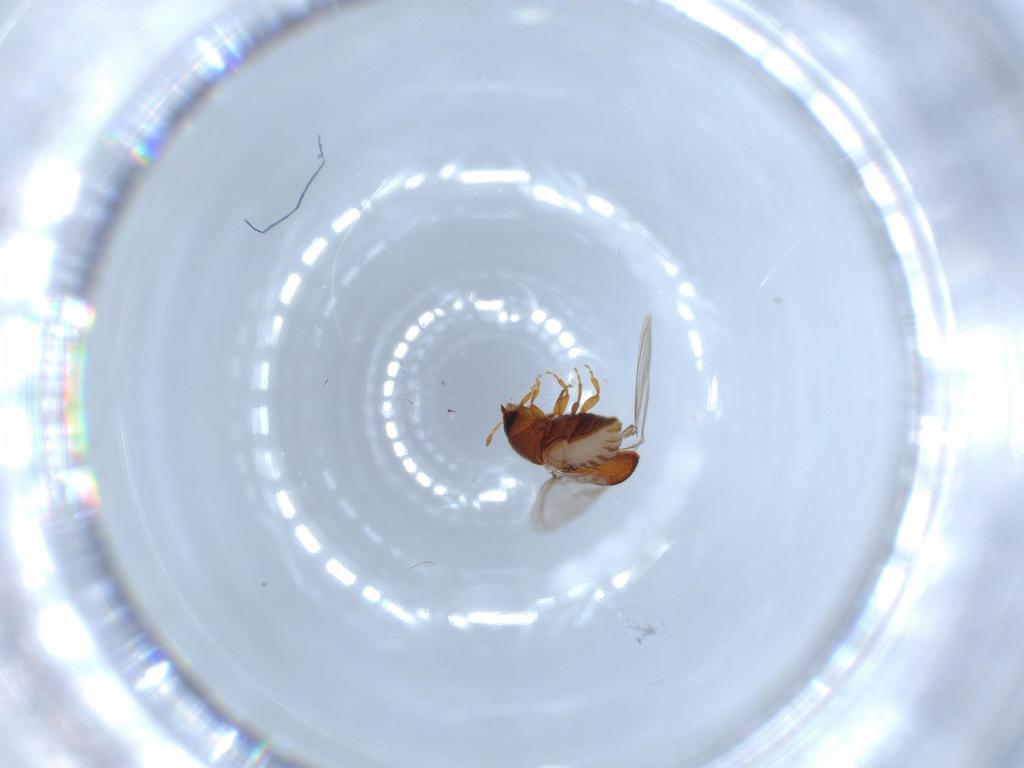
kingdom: Animalia
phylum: Arthropoda
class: Insecta
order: Coleoptera
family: Curculionidae
